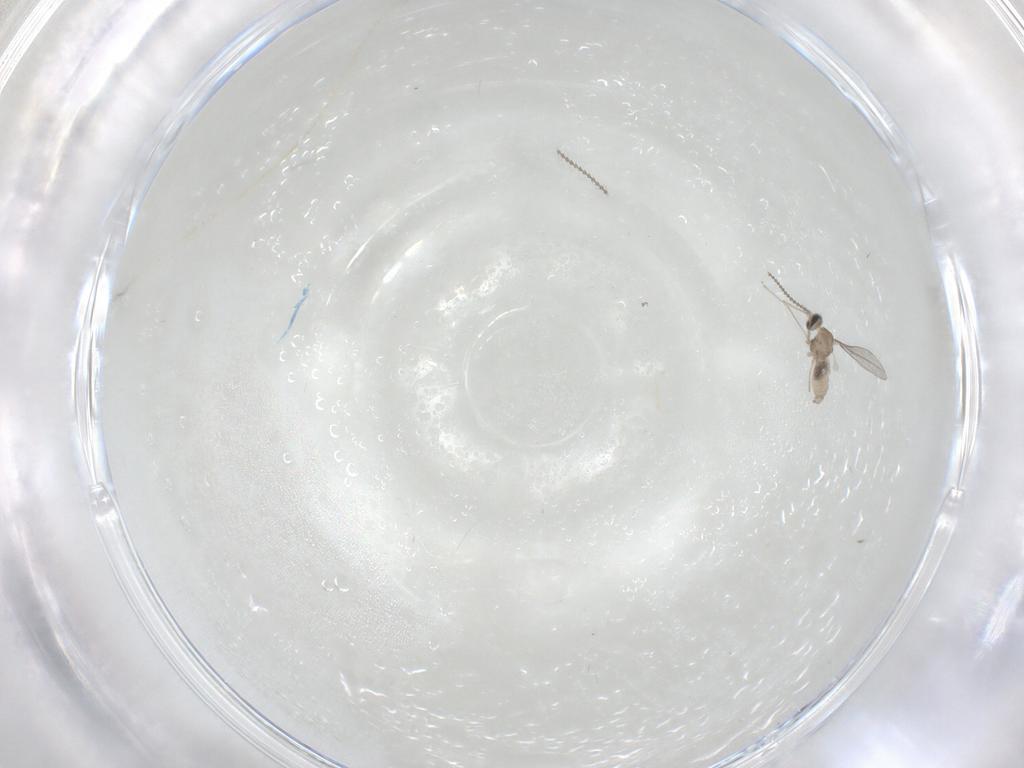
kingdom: Animalia
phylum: Arthropoda
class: Insecta
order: Diptera
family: Cecidomyiidae
